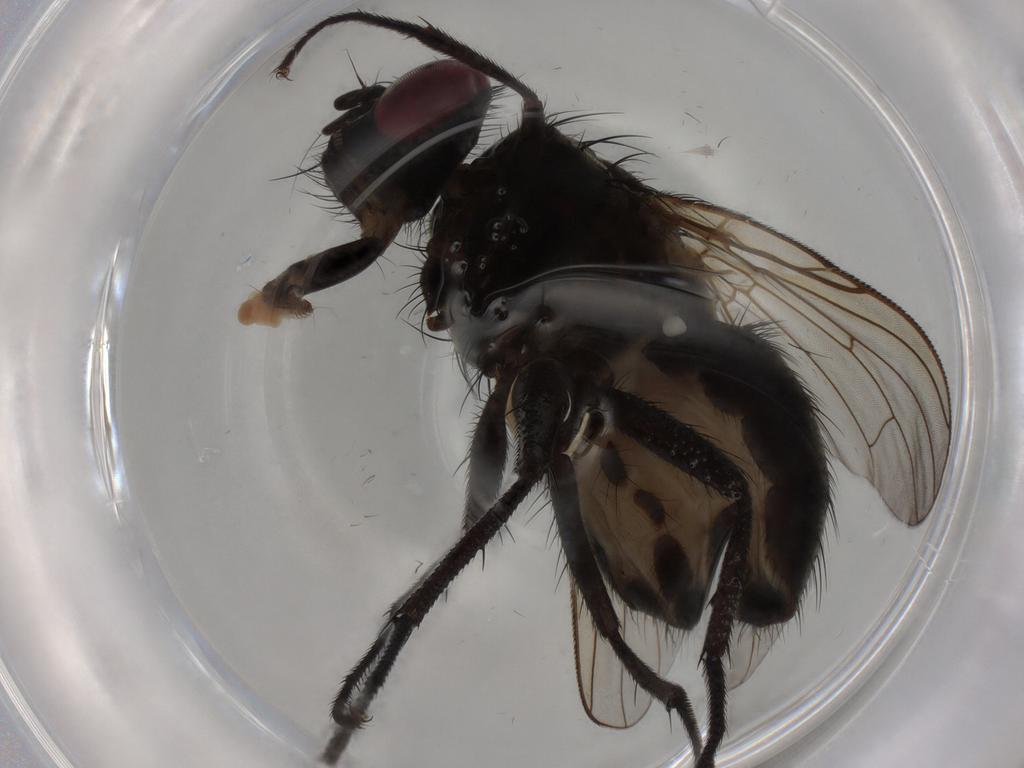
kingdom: Animalia
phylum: Arthropoda
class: Insecta
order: Diptera
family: Muscidae
